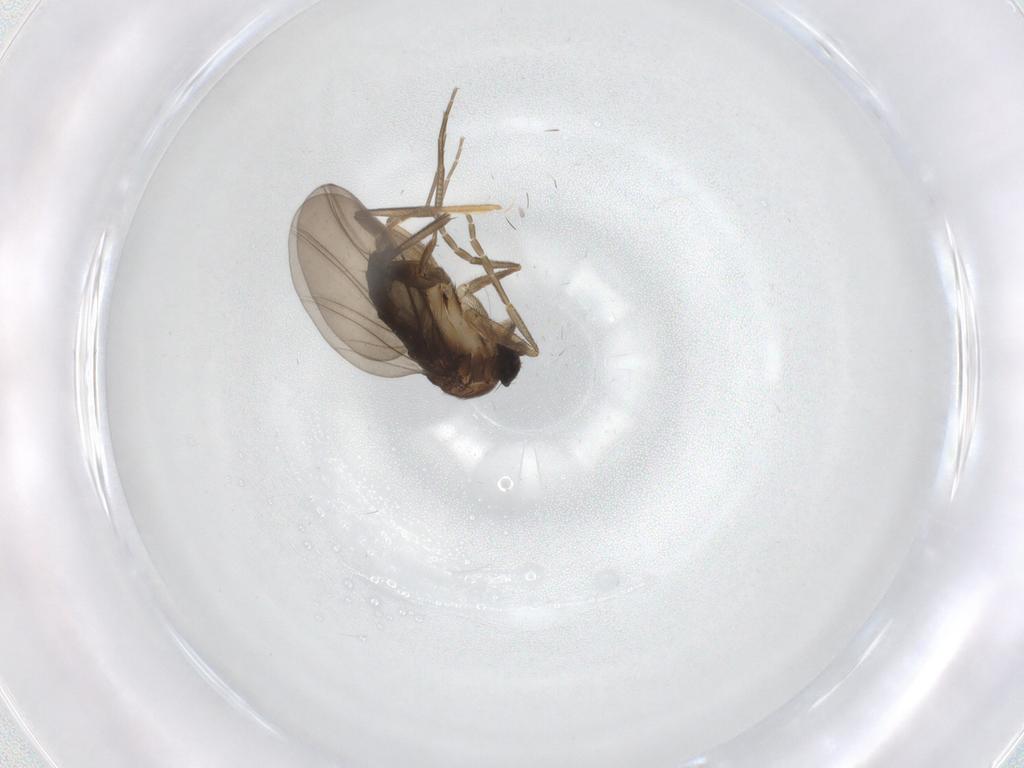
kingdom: Animalia
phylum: Arthropoda
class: Insecta
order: Diptera
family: Phoridae
